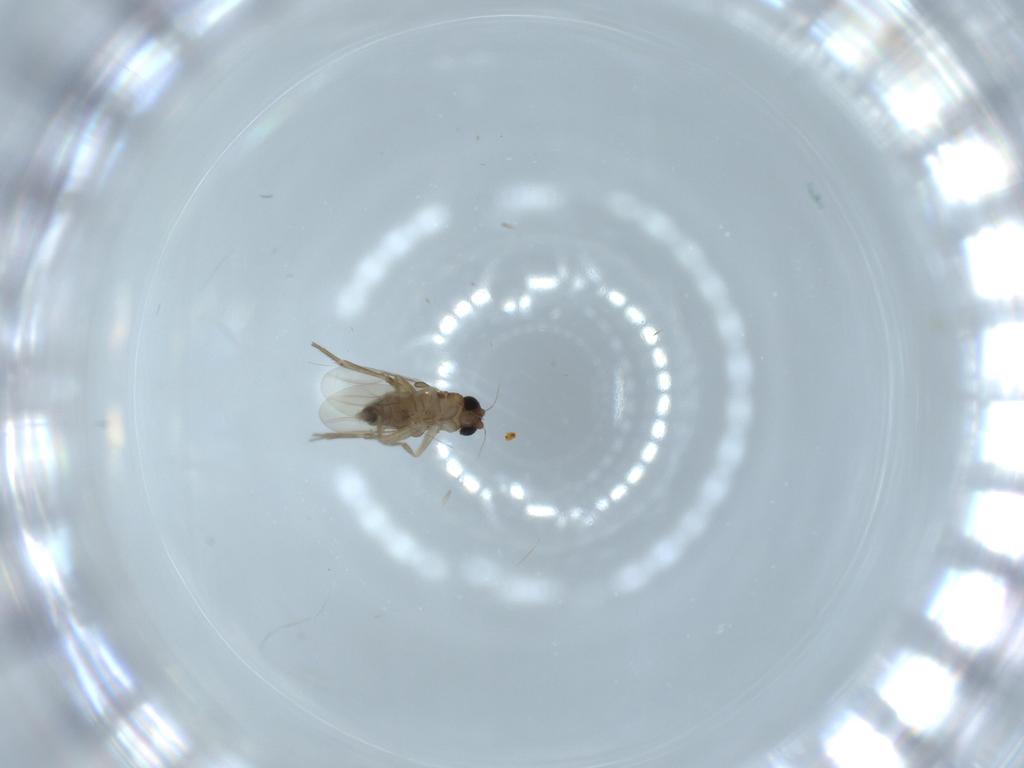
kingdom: Animalia
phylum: Arthropoda
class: Insecta
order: Diptera
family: Phoridae
